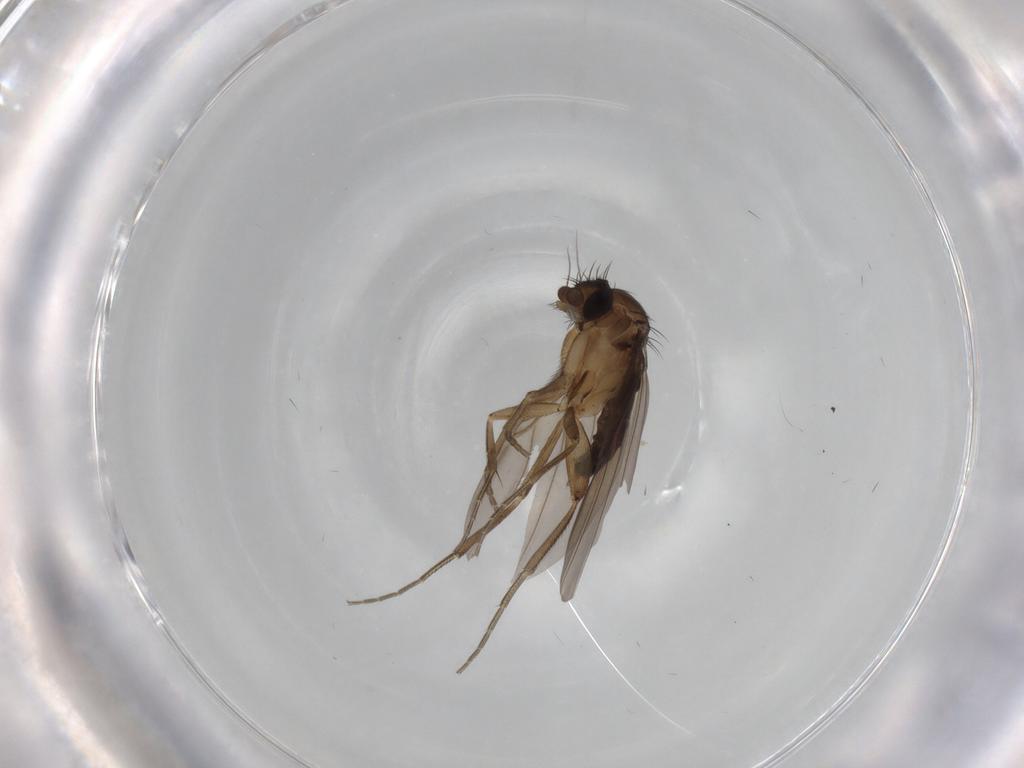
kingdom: Animalia
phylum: Arthropoda
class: Insecta
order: Diptera
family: Phoridae
